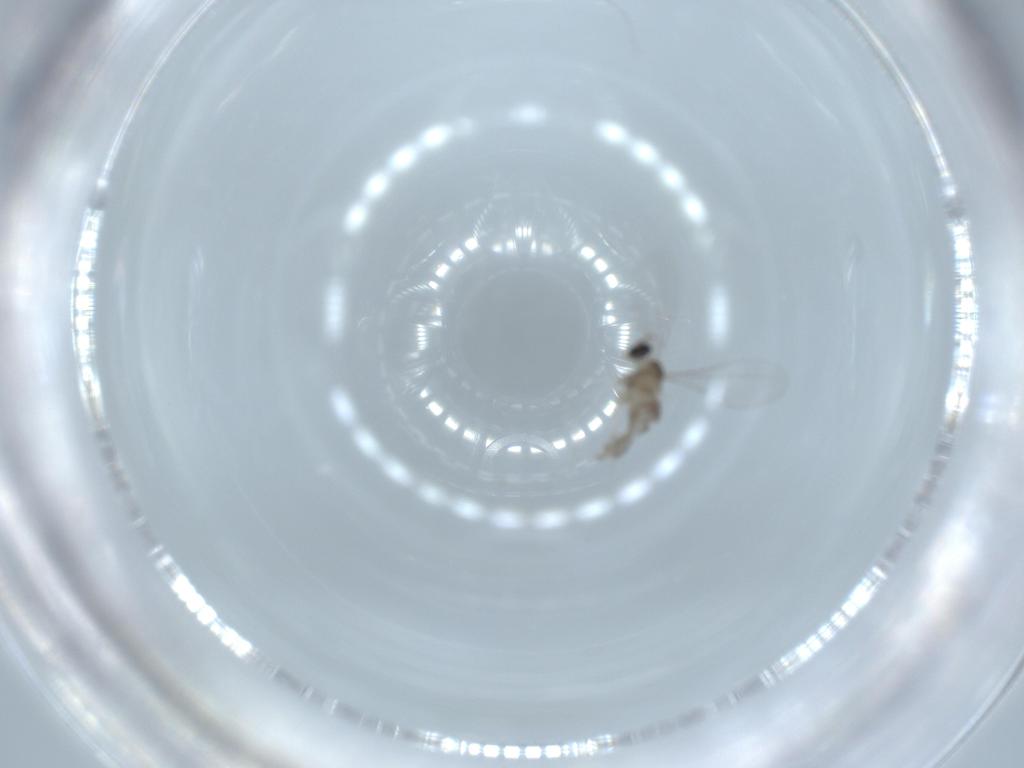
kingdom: Animalia
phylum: Arthropoda
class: Insecta
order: Diptera
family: Cecidomyiidae
